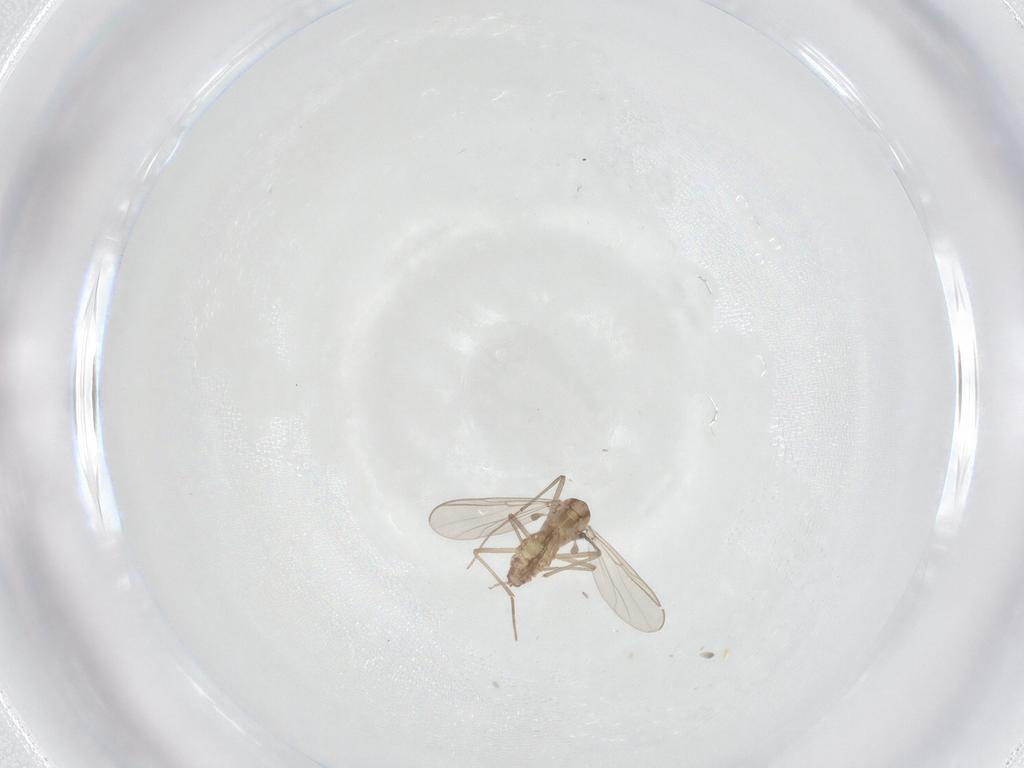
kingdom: Animalia
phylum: Arthropoda
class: Insecta
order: Diptera
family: Chironomidae
